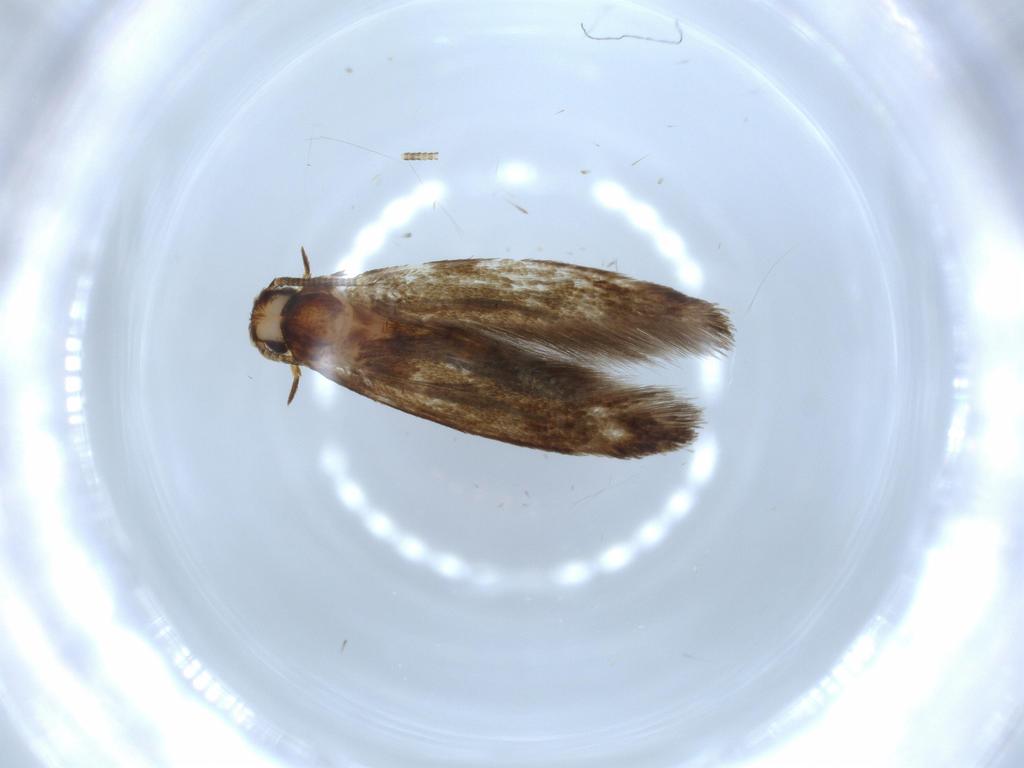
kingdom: Animalia
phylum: Arthropoda
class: Insecta
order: Lepidoptera
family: Tineidae
